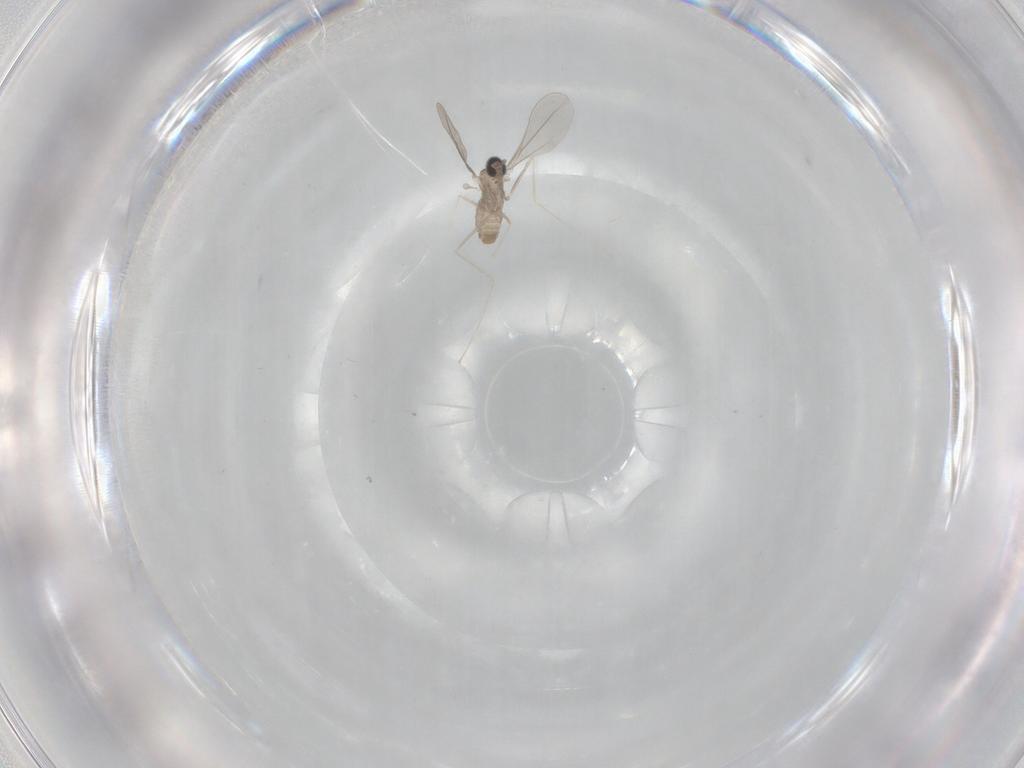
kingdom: Animalia
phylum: Arthropoda
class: Insecta
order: Diptera
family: Cecidomyiidae
